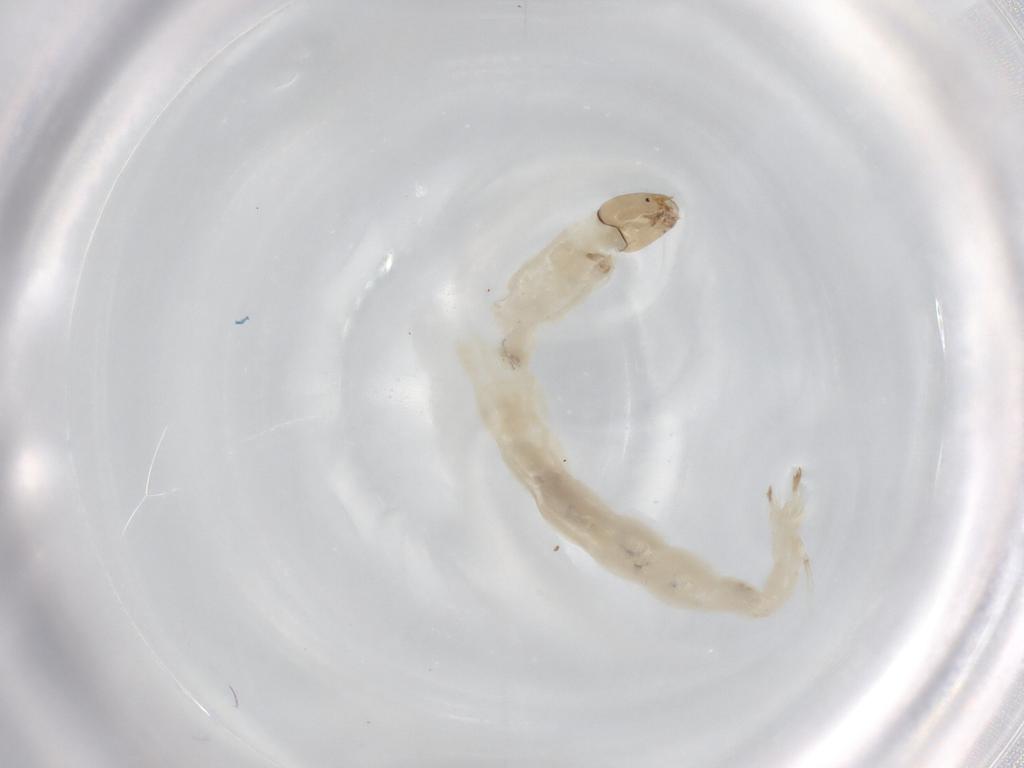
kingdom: Animalia
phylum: Arthropoda
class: Insecta
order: Diptera
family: Chironomidae
